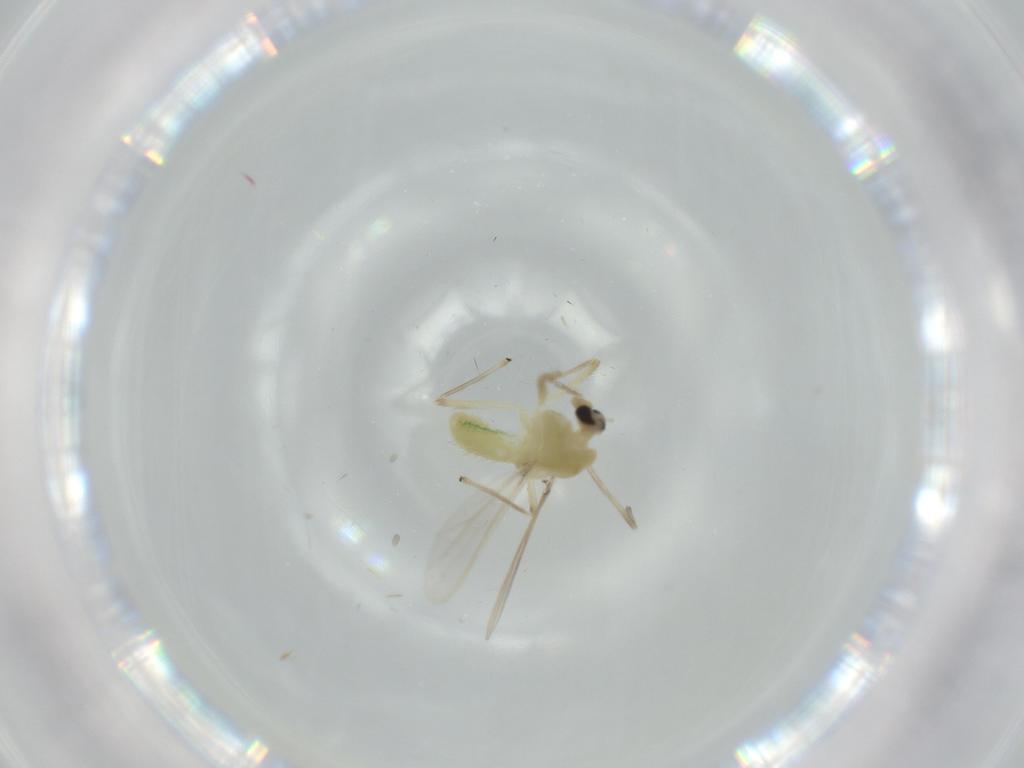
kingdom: Animalia
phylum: Arthropoda
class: Insecta
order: Diptera
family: Chironomidae
